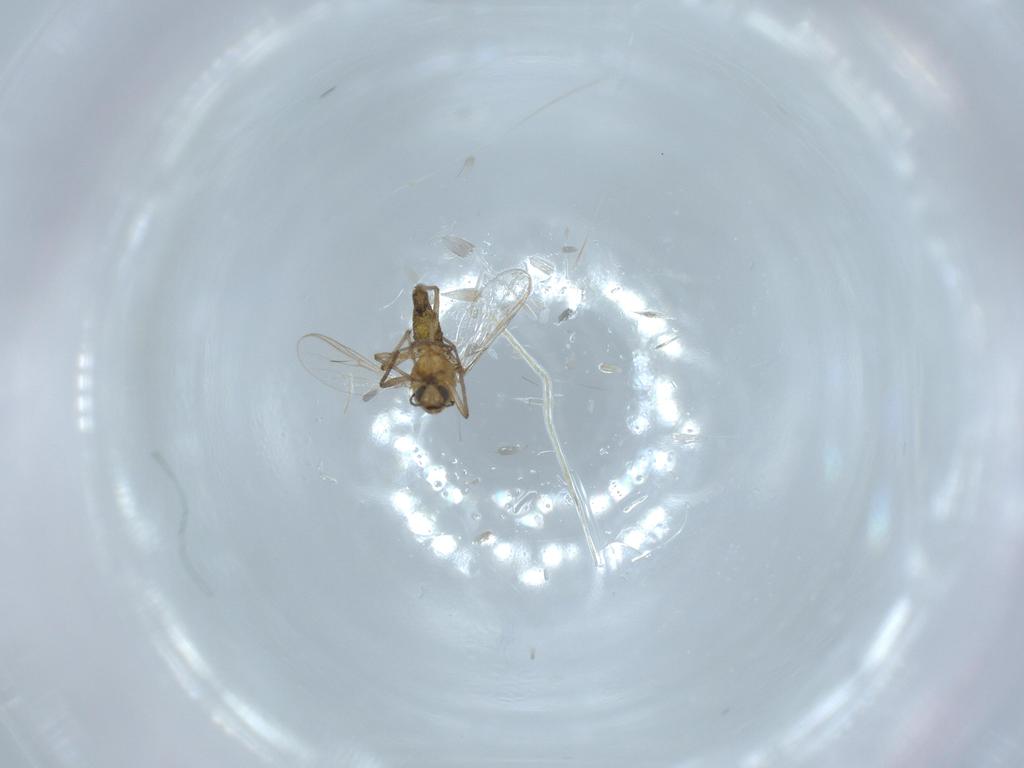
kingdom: Animalia
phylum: Arthropoda
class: Insecta
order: Diptera
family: Chironomidae
